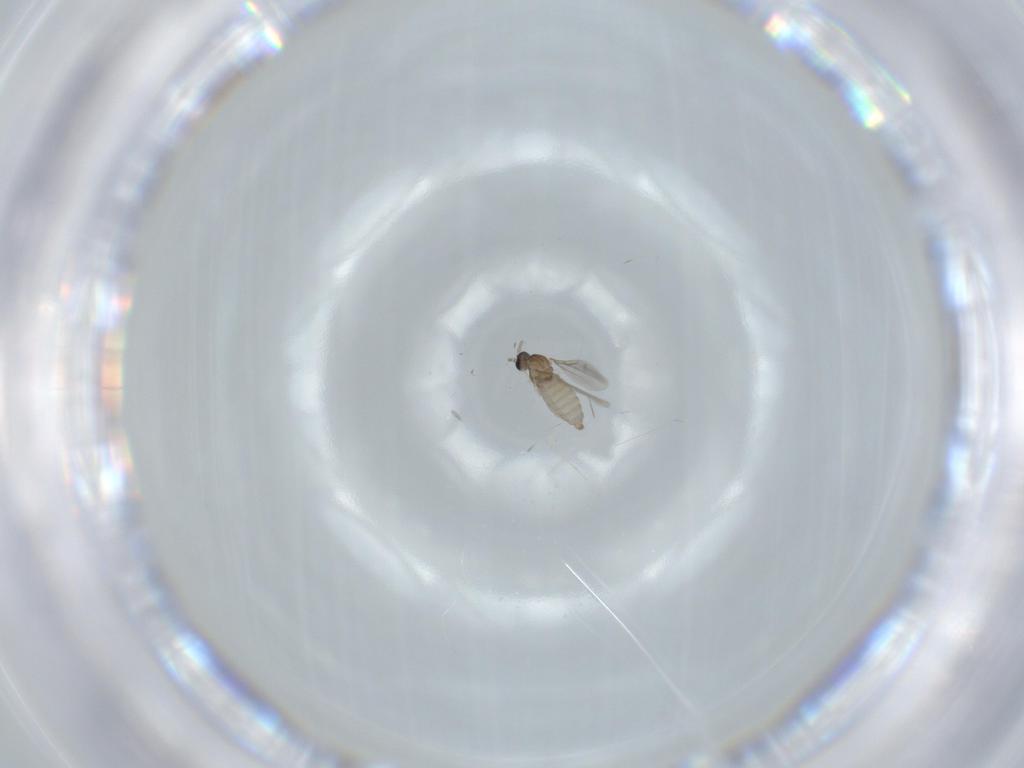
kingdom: Animalia
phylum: Arthropoda
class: Insecta
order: Diptera
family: Cecidomyiidae
